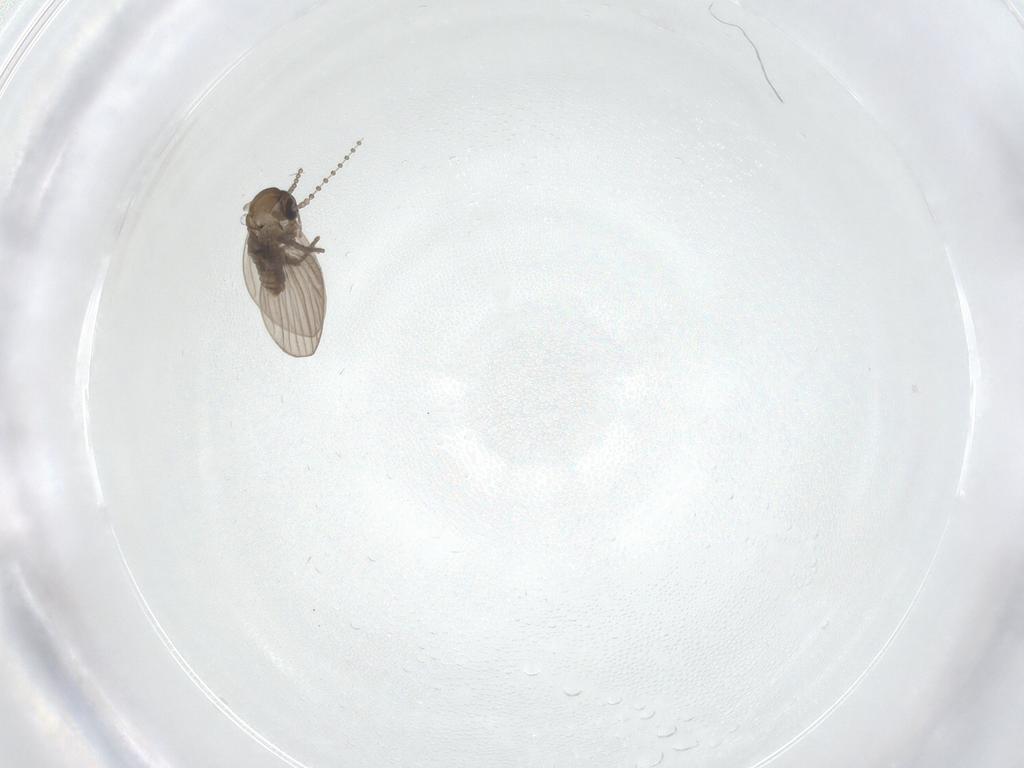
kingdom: Animalia
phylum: Arthropoda
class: Insecta
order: Diptera
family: Psychodidae
